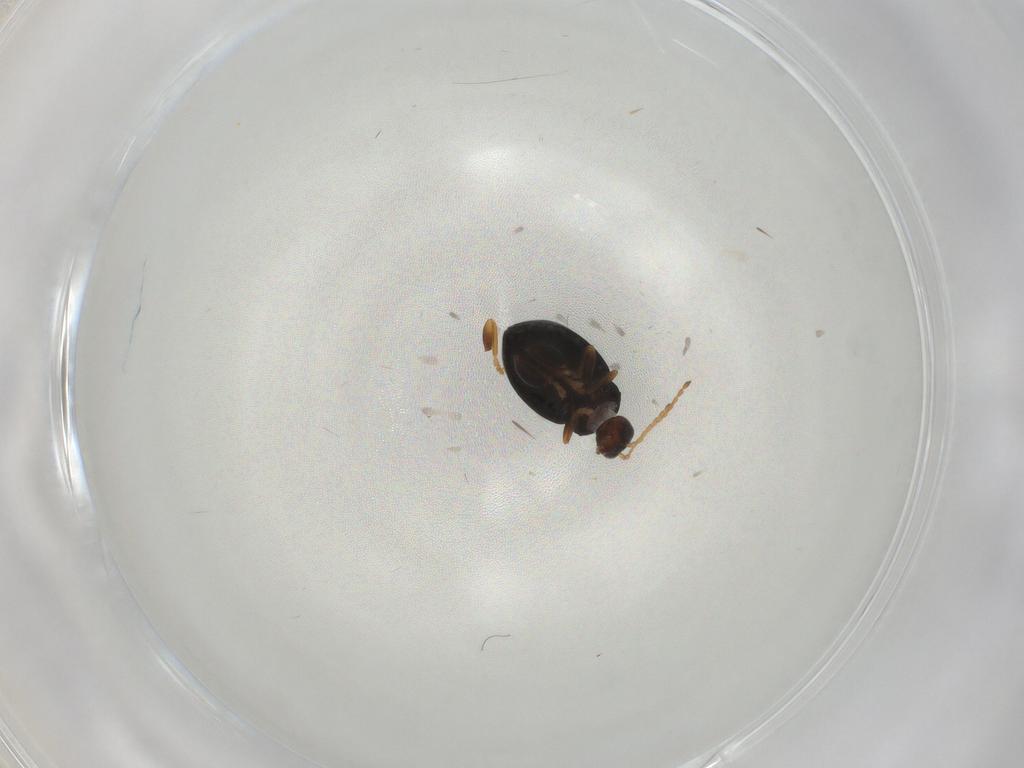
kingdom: Animalia
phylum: Arthropoda
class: Insecta
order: Coleoptera
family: Chrysomelidae
